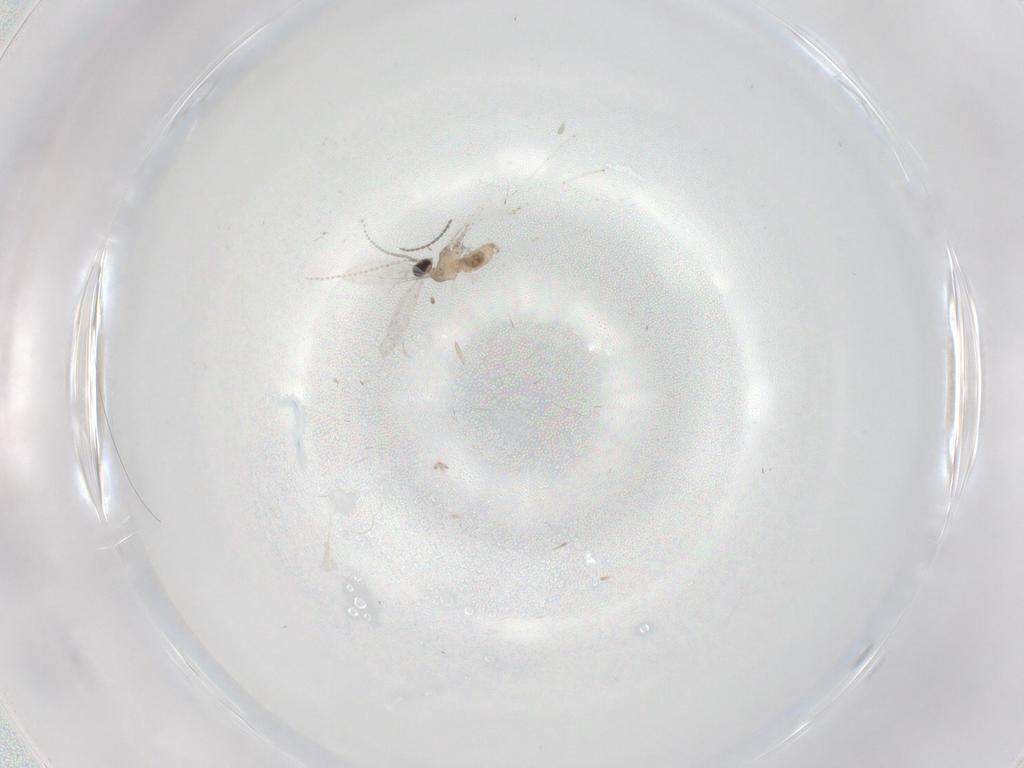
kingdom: Animalia
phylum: Arthropoda
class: Insecta
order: Diptera
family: Cecidomyiidae
